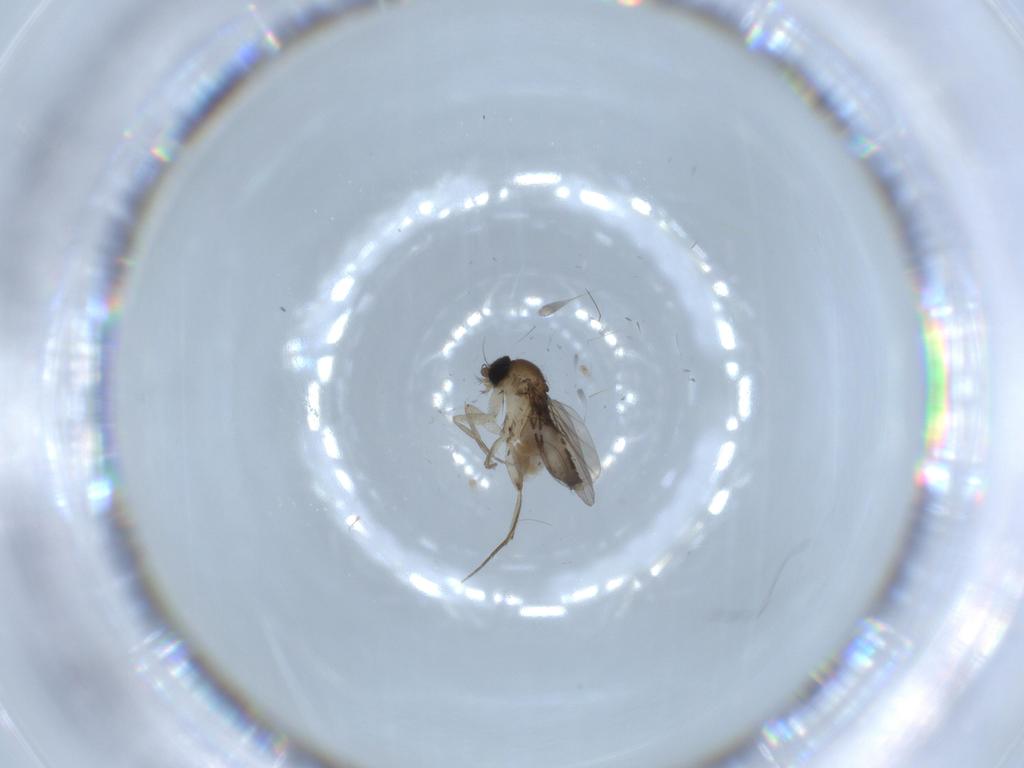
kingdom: Animalia
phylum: Arthropoda
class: Insecta
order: Diptera
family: Phoridae
